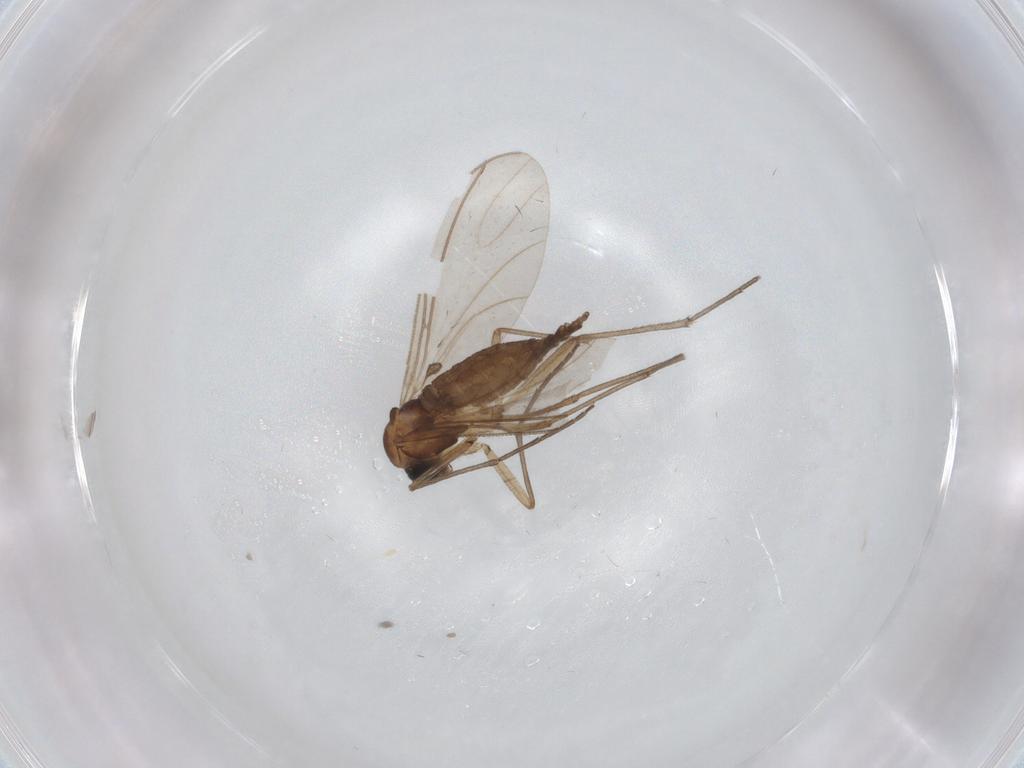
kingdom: Animalia
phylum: Arthropoda
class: Insecta
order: Diptera
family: Sciaridae
